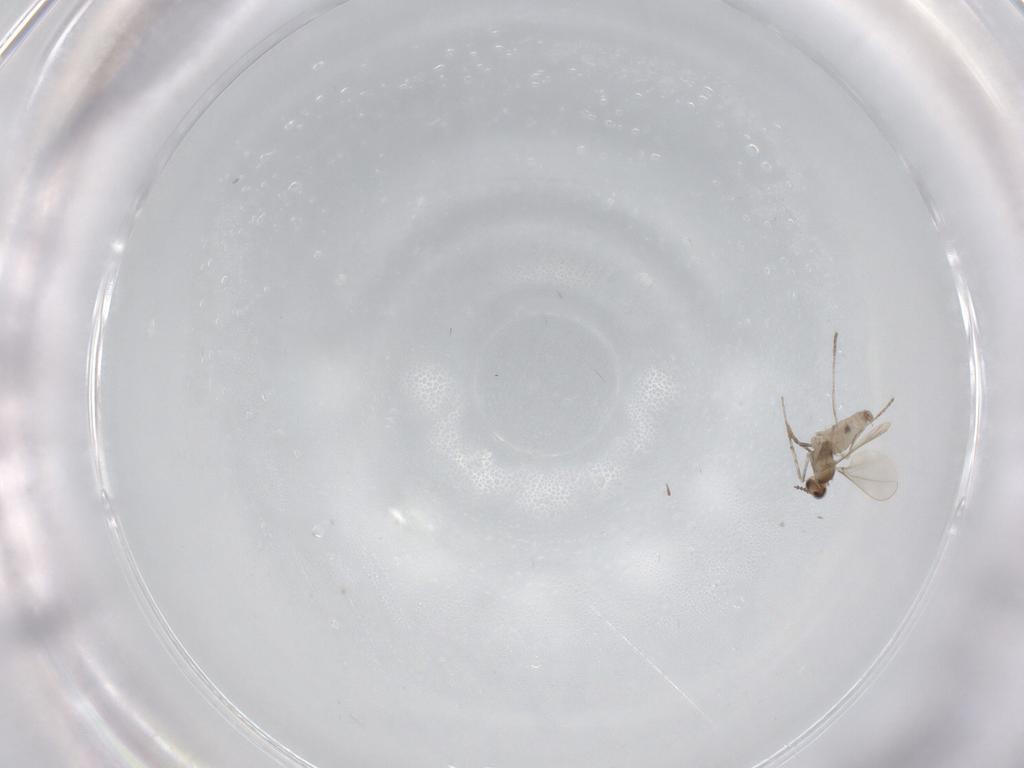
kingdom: Animalia
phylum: Arthropoda
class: Insecta
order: Diptera
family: Cecidomyiidae
